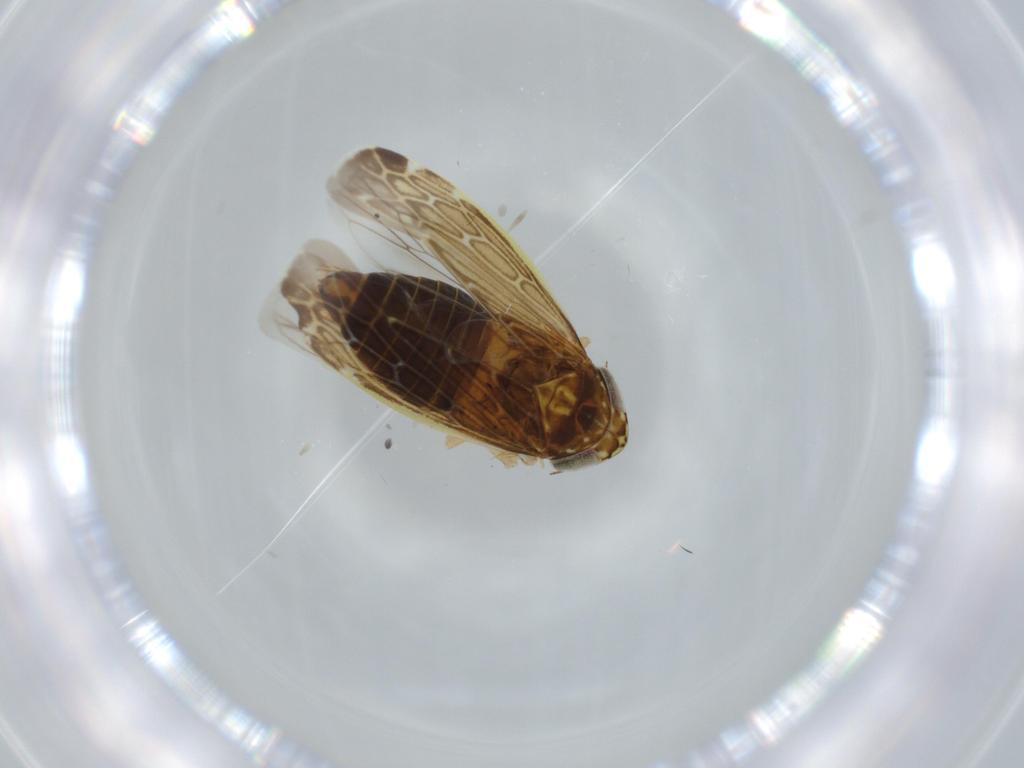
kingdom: Animalia
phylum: Arthropoda
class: Insecta
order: Hemiptera
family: Cicadellidae
